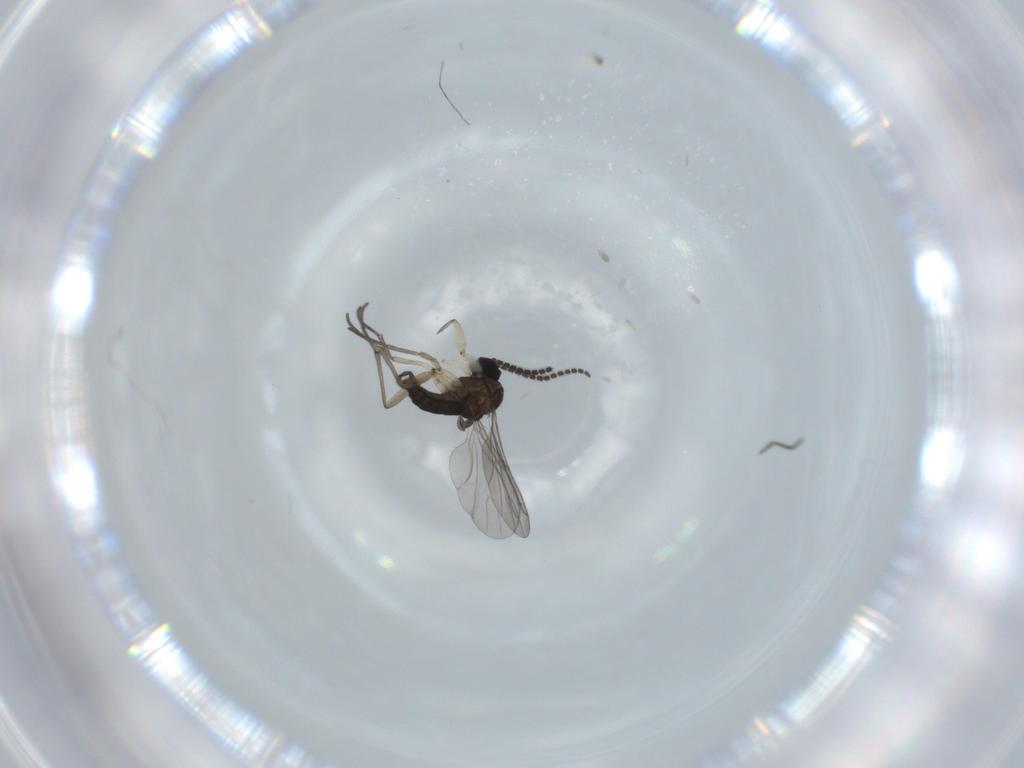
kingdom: Animalia
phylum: Arthropoda
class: Insecta
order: Diptera
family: Sciaridae
